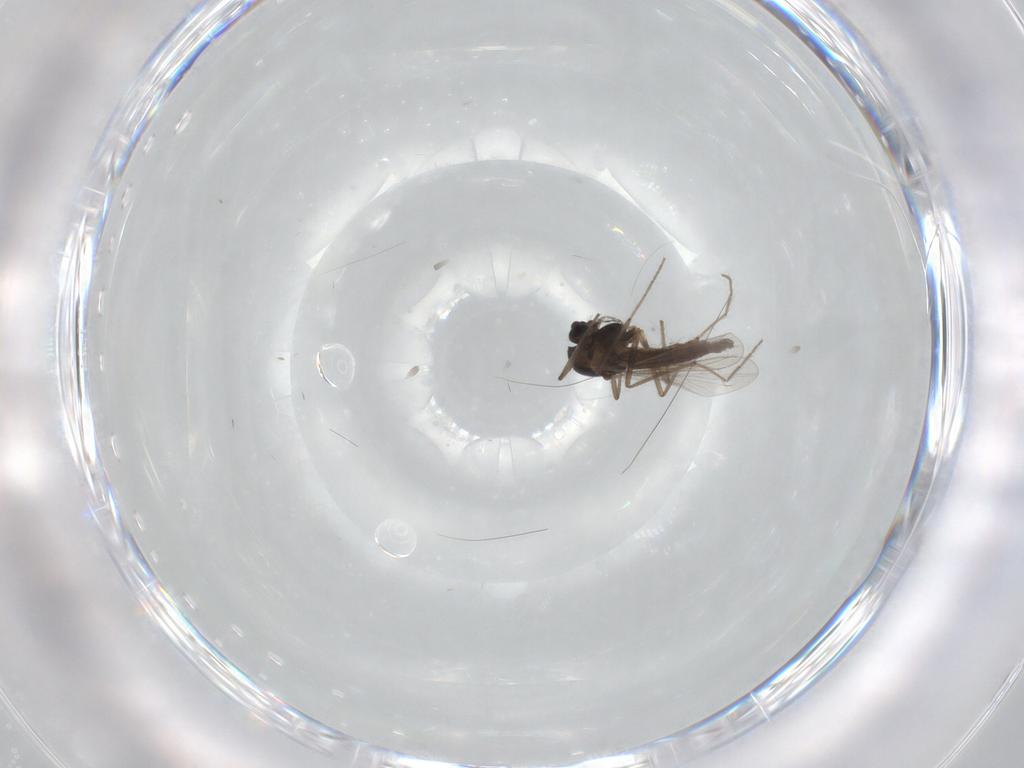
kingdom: Animalia
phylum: Arthropoda
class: Insecta
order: Diptera
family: Chironomidae
